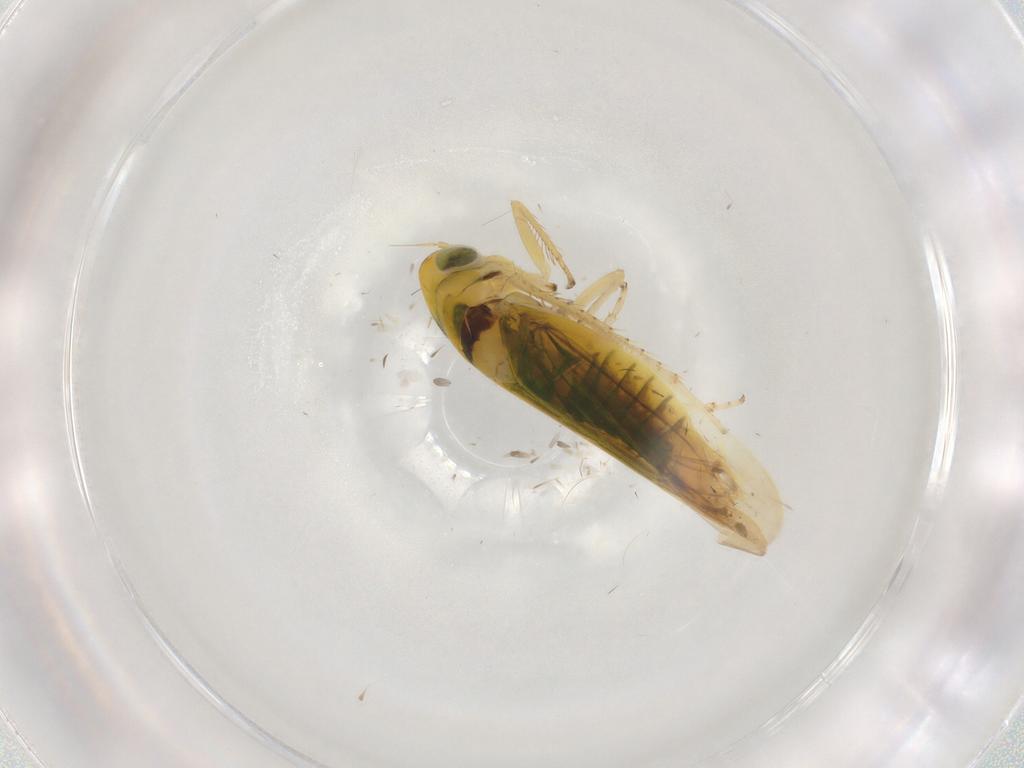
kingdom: Animalia
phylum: Arthropoda
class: Insecta
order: Hemiptera
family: Cicadellidae
